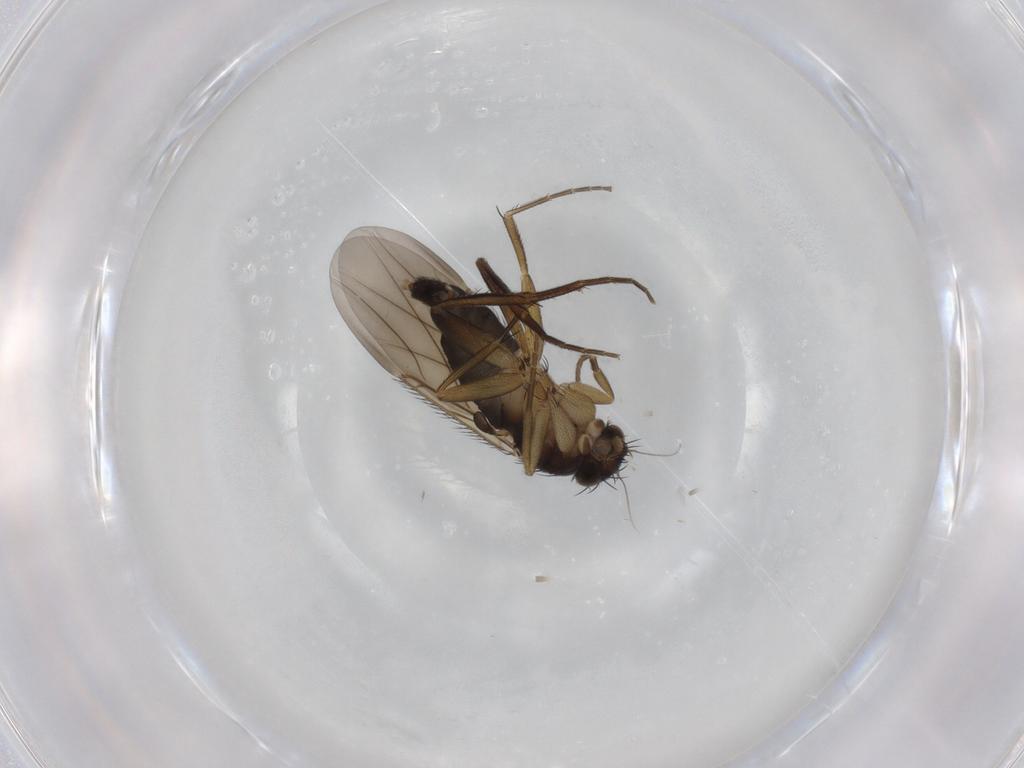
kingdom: Animalia
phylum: Arthropoda
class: Insecta
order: Diptera
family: Phoridae
